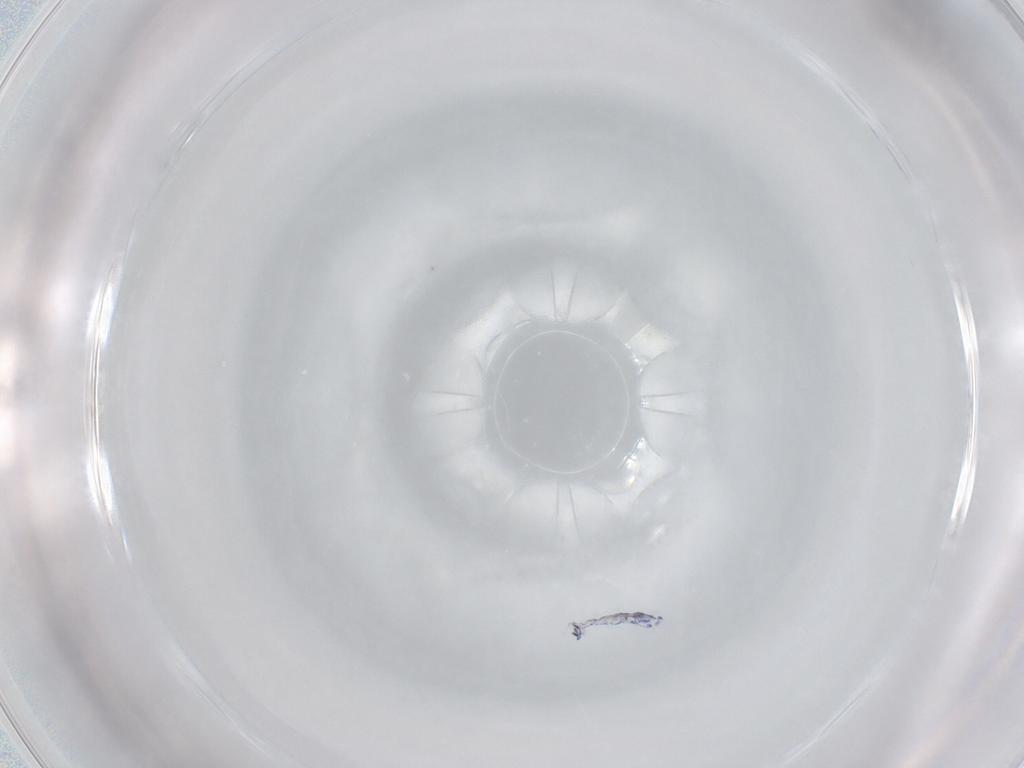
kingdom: Animalia
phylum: Arthropoda
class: Collembola
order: Entomobryomorpha
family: Entomobryidae
